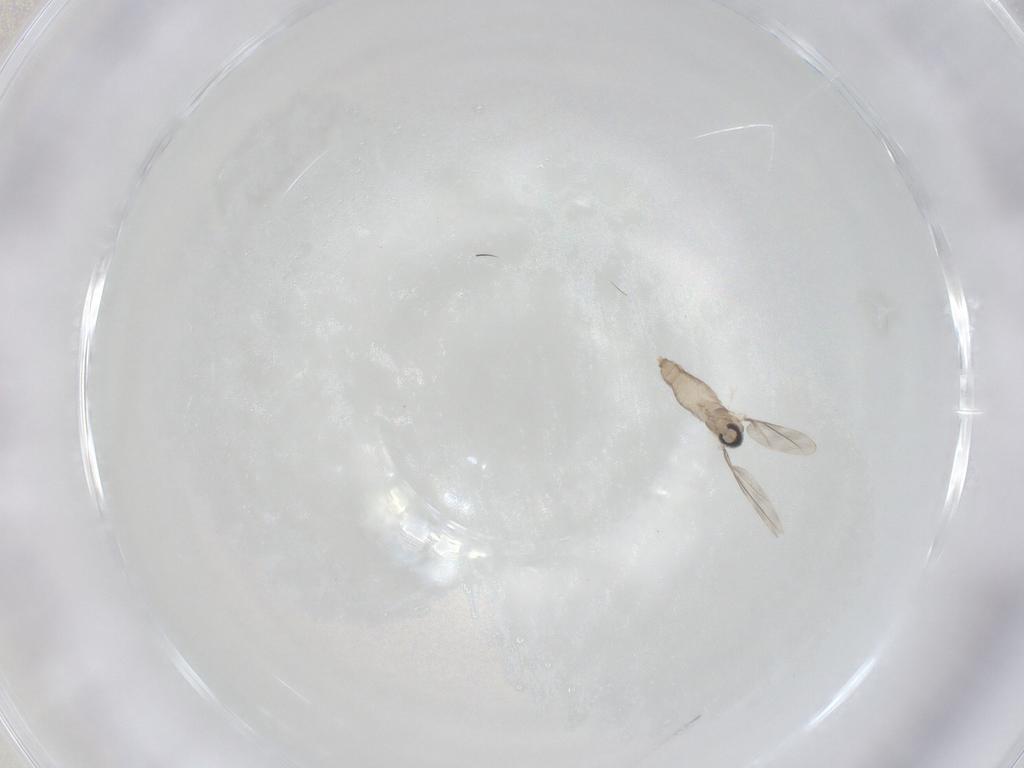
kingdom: Animalia
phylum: Arthropoda
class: Insecta
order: Diptera
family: Cecidomyiidae
